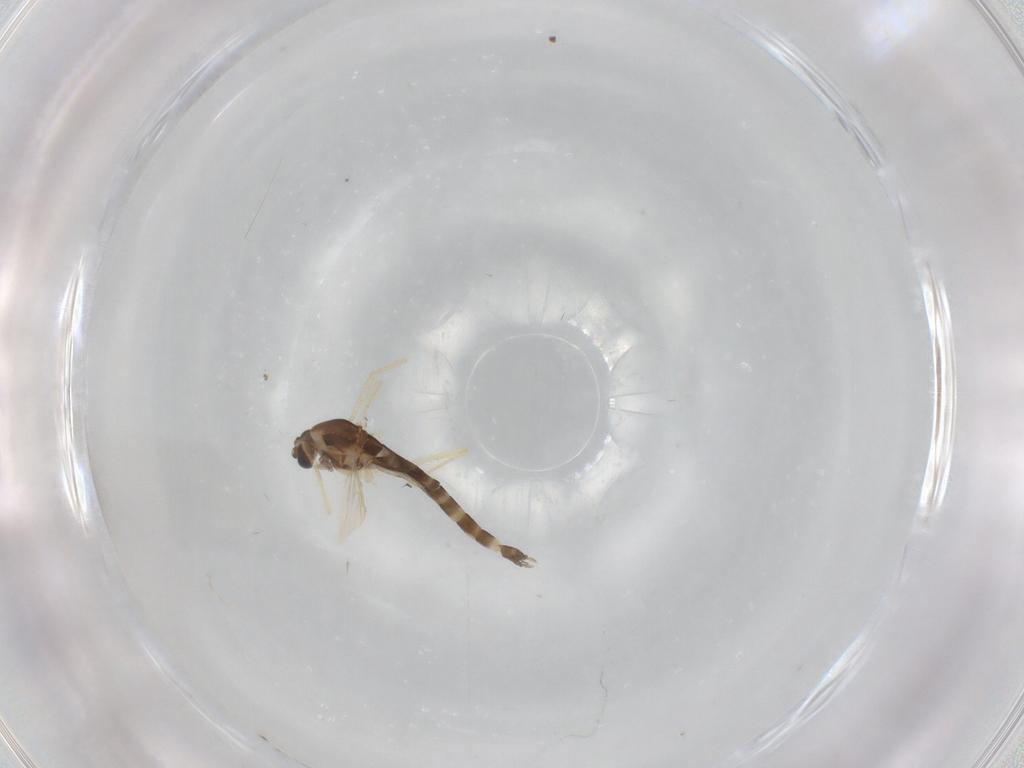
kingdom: Animalia
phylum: Arthropoda
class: Insecta
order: Diptera
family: Chironomidae
